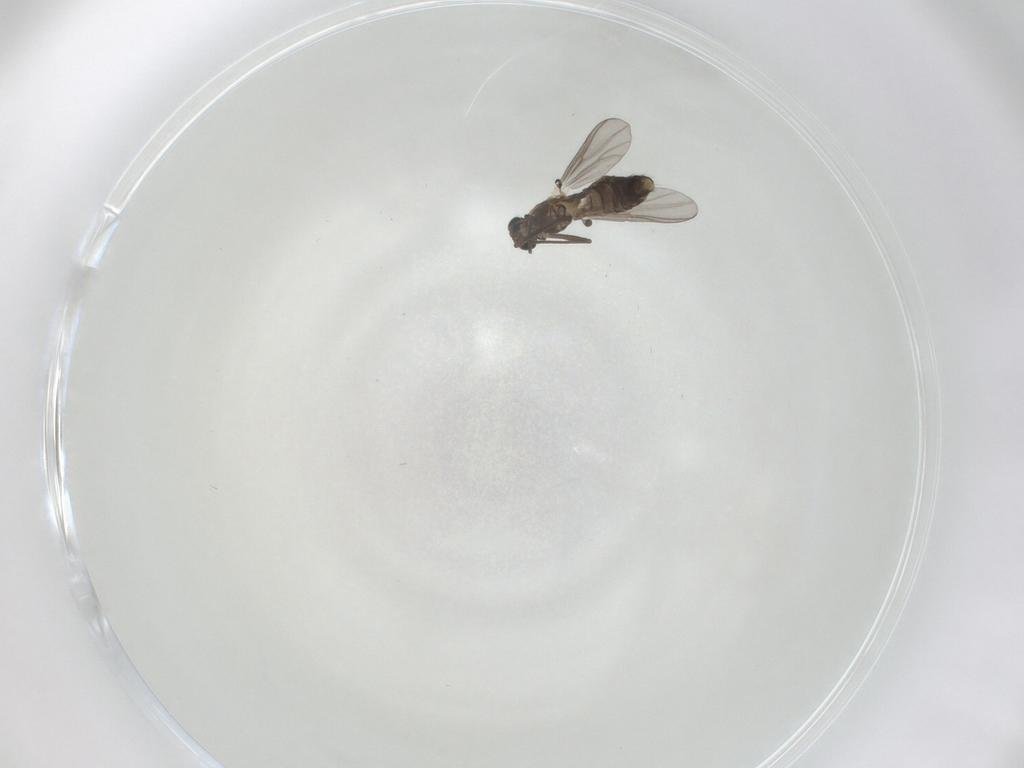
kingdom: Animalia
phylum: Arthropoda
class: Insecta
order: Diptera
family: Chironomidae
